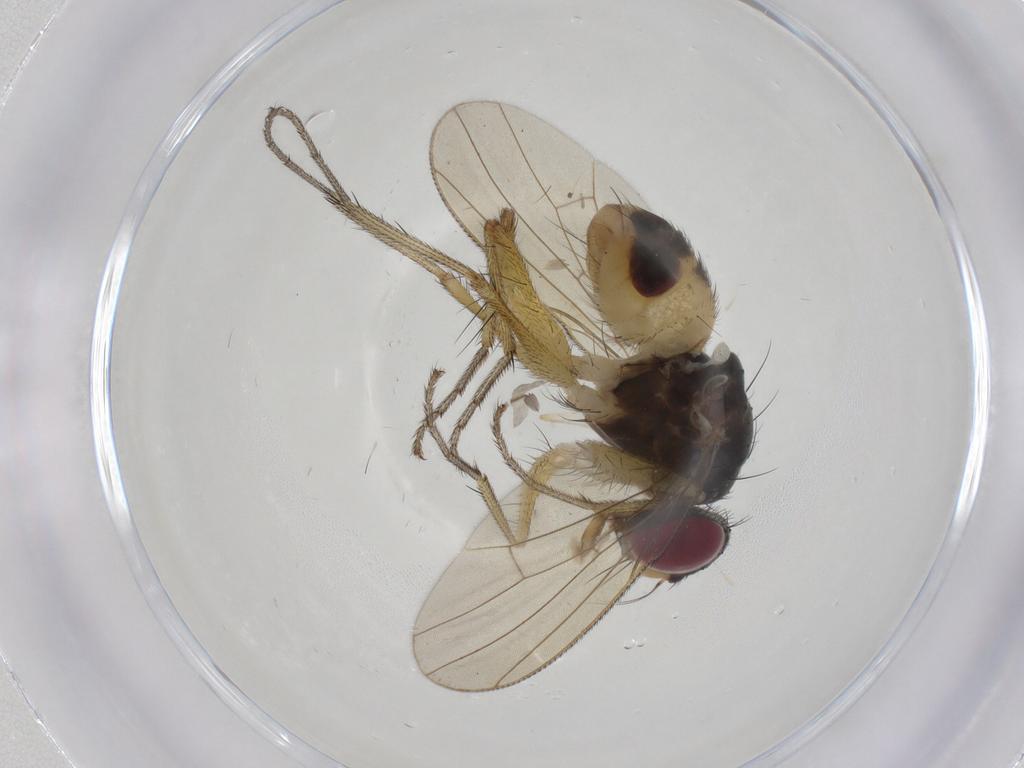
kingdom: Animalia
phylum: Arthropoda
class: Insecta
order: Diptera
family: Muscidae
